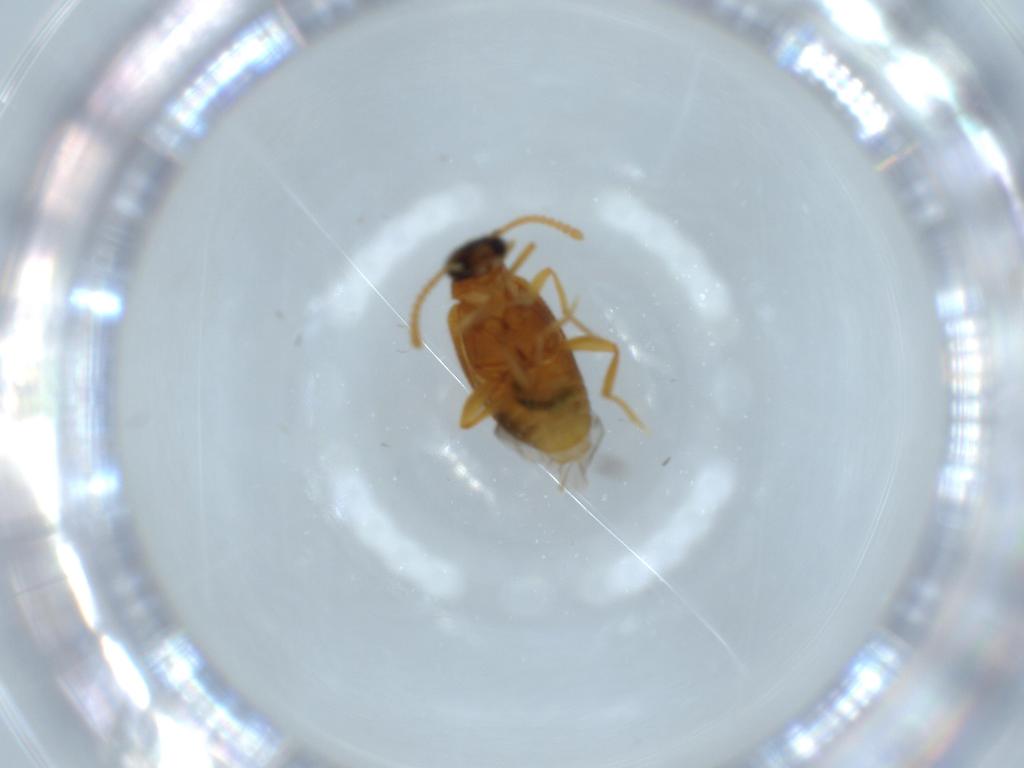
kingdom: Animalia
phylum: Arthropoda
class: Insecta
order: Coleoptera
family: Aderidae
